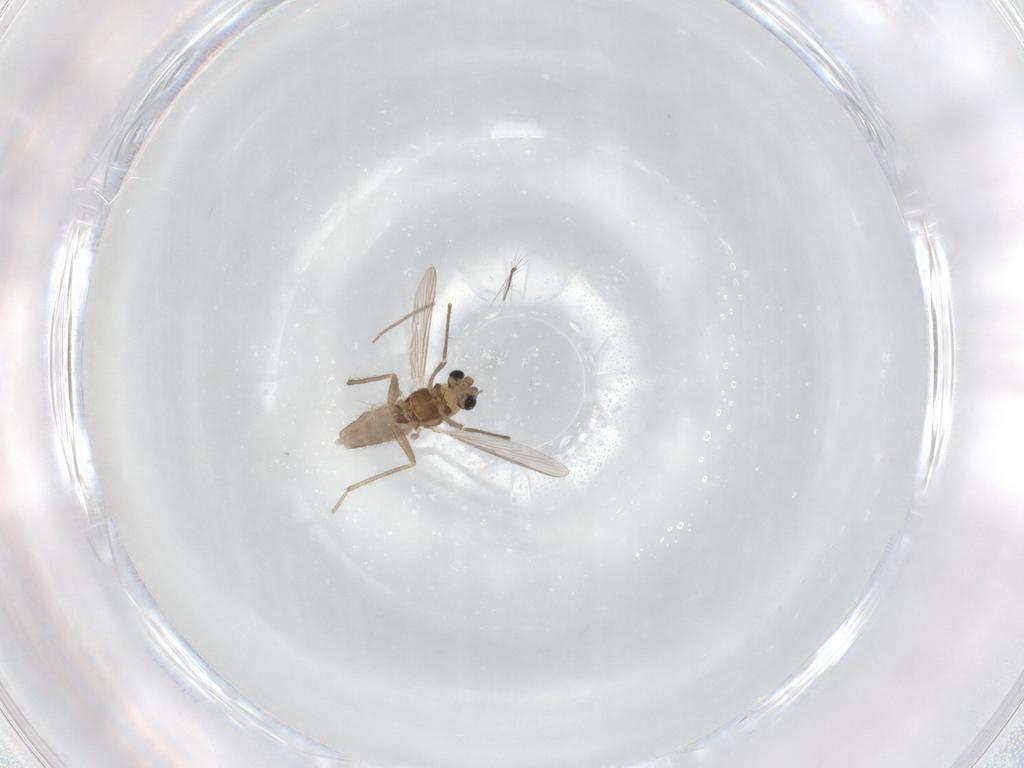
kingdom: Animalia
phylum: Arthropoda
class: Insecta
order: Diptera
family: Chironomidae
